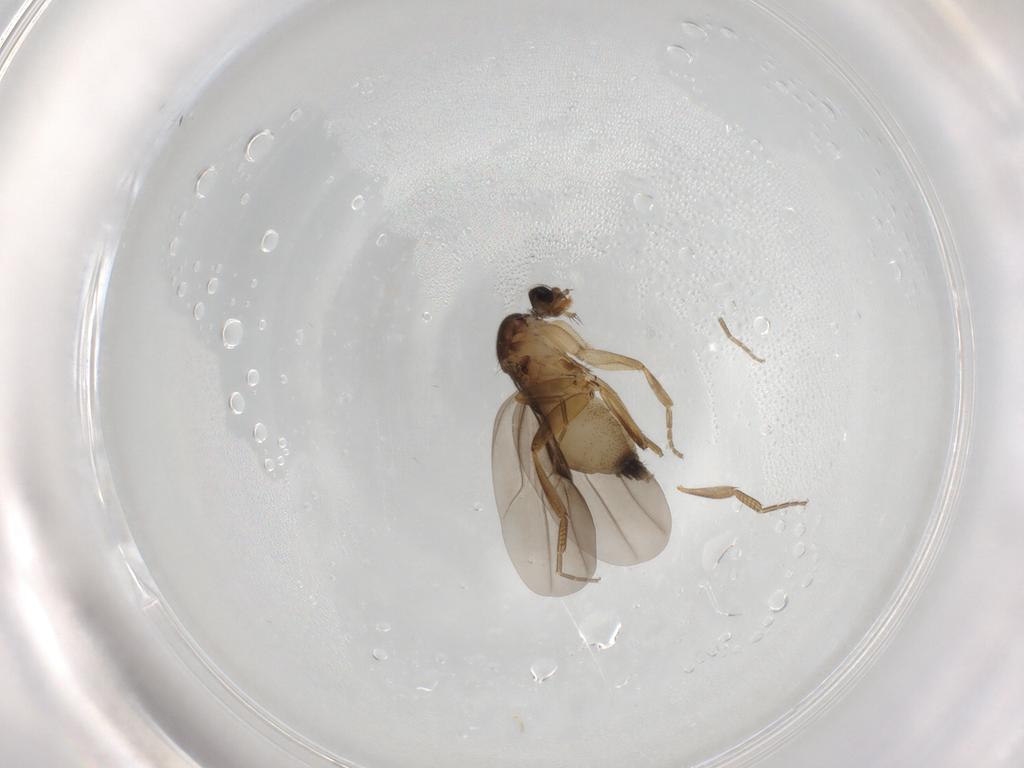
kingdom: Animalia
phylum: Arthropoda
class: Insecta
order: Diptera
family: Phoridae
